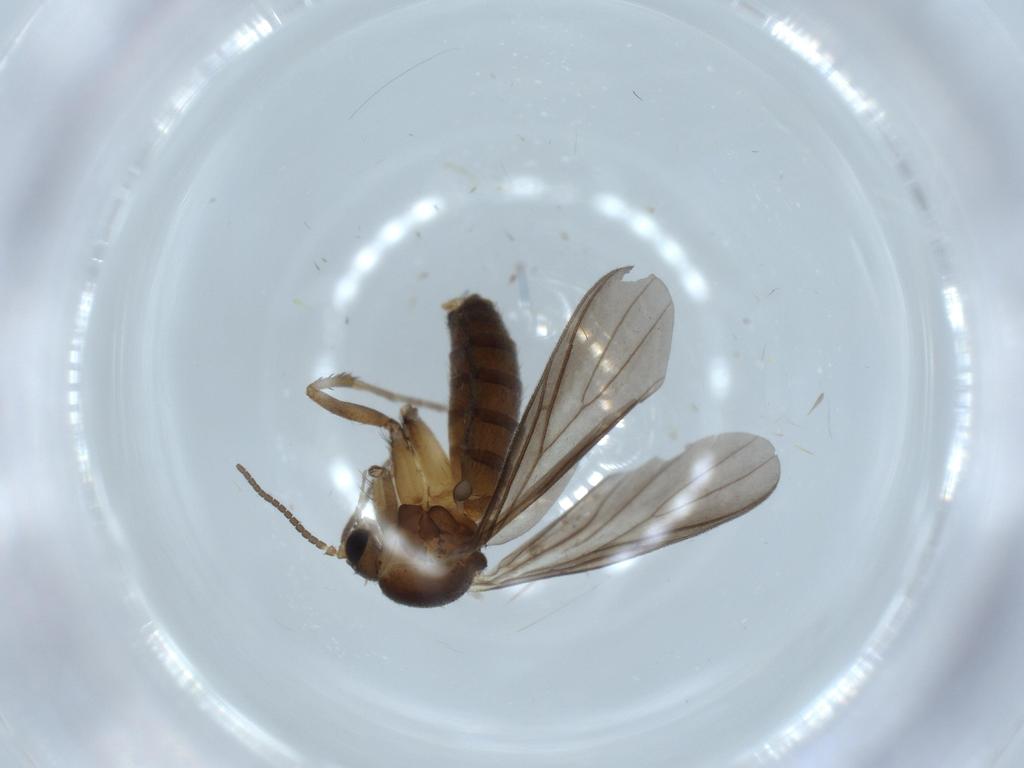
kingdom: Animalia
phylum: Arthropoda
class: Insecta
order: Diptera
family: Sciaridae
